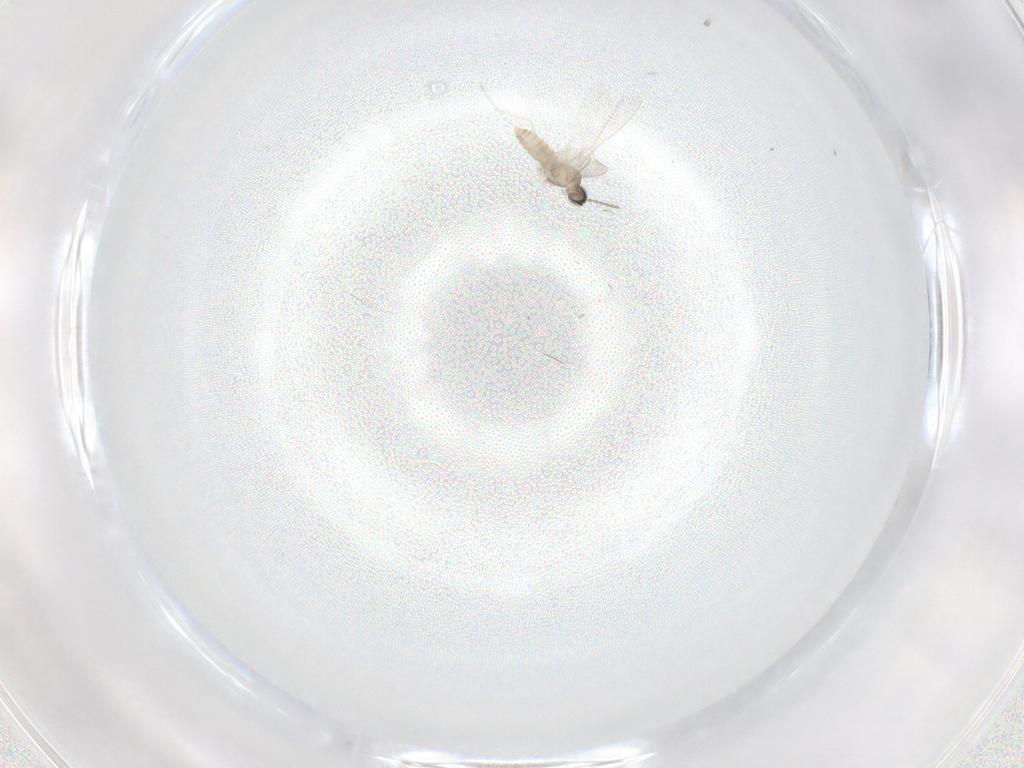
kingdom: Animalia
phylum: Arthropoda
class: Insecta
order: Diptera
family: Cecidomyiidae
